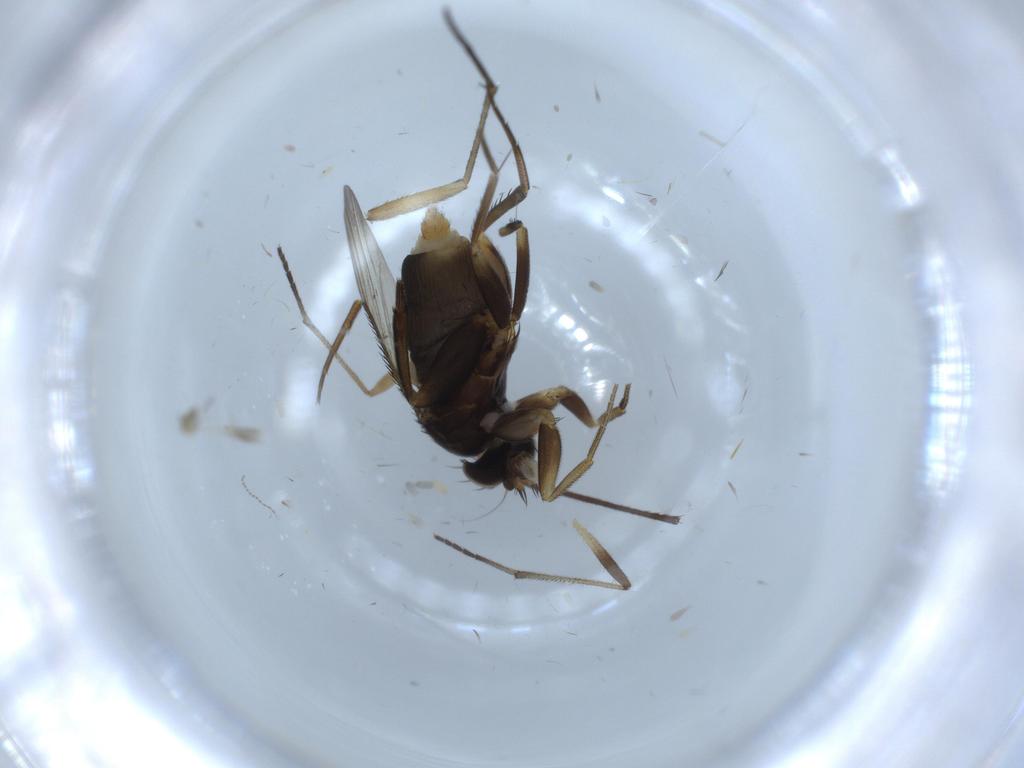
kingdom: Animalia
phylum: Arthropoda
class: Insecta
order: Diptera
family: Phoridae
